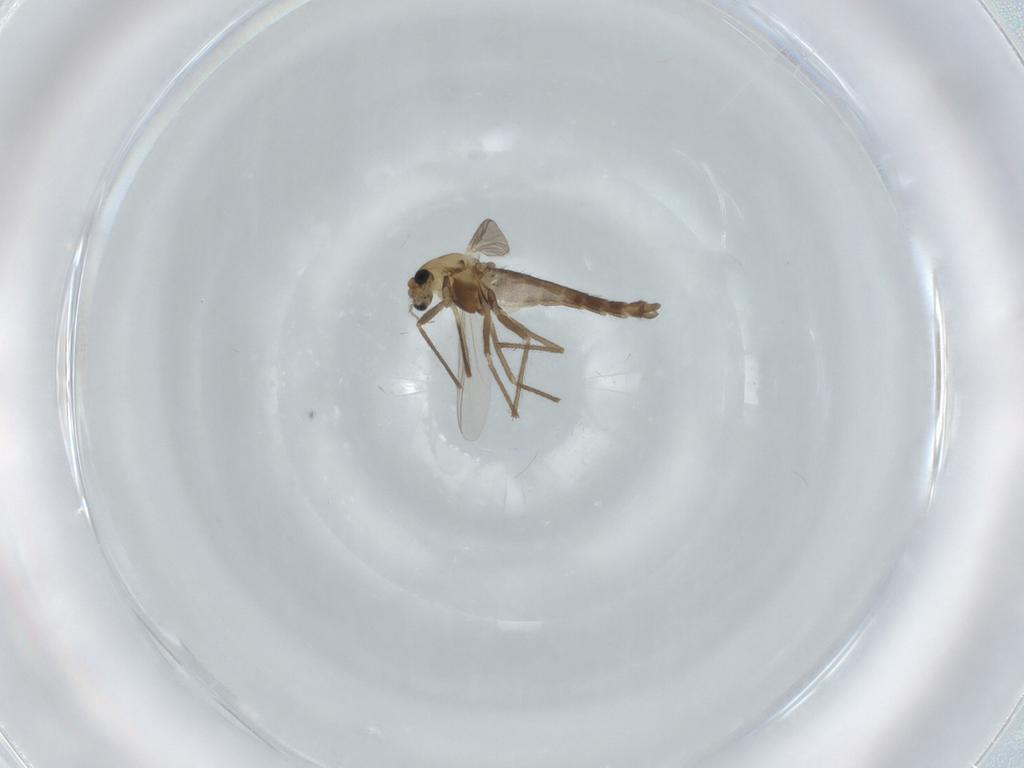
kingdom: Animalia
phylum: Arthropoda
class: Insecta
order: Diptera
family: Chironomidae
